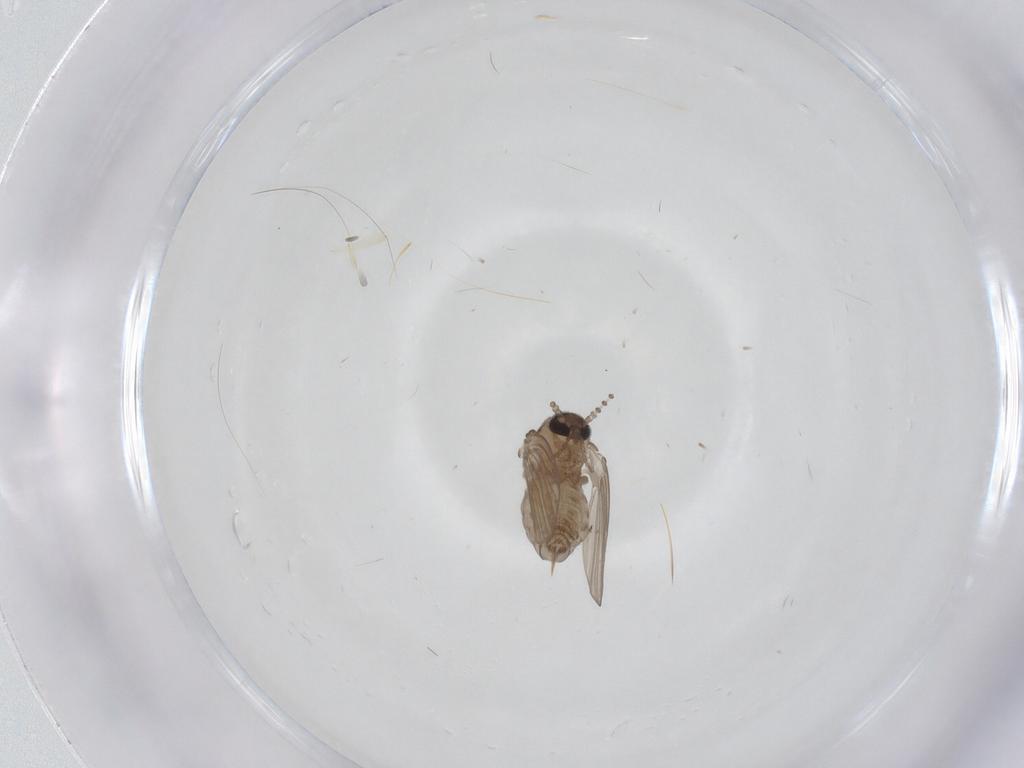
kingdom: Animalia
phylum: Arthropoda
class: Insecta
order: Diptera
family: Psychodidae
